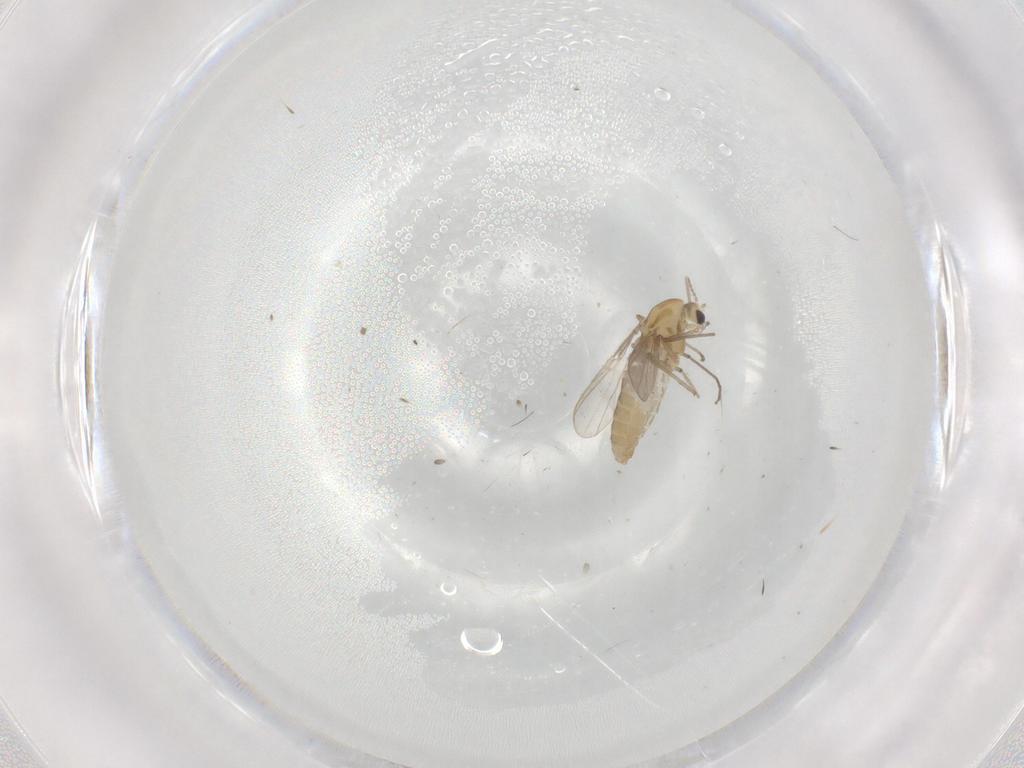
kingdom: Animalia
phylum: Arthropoda
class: Insecta
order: Diptera
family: Chironomidae
